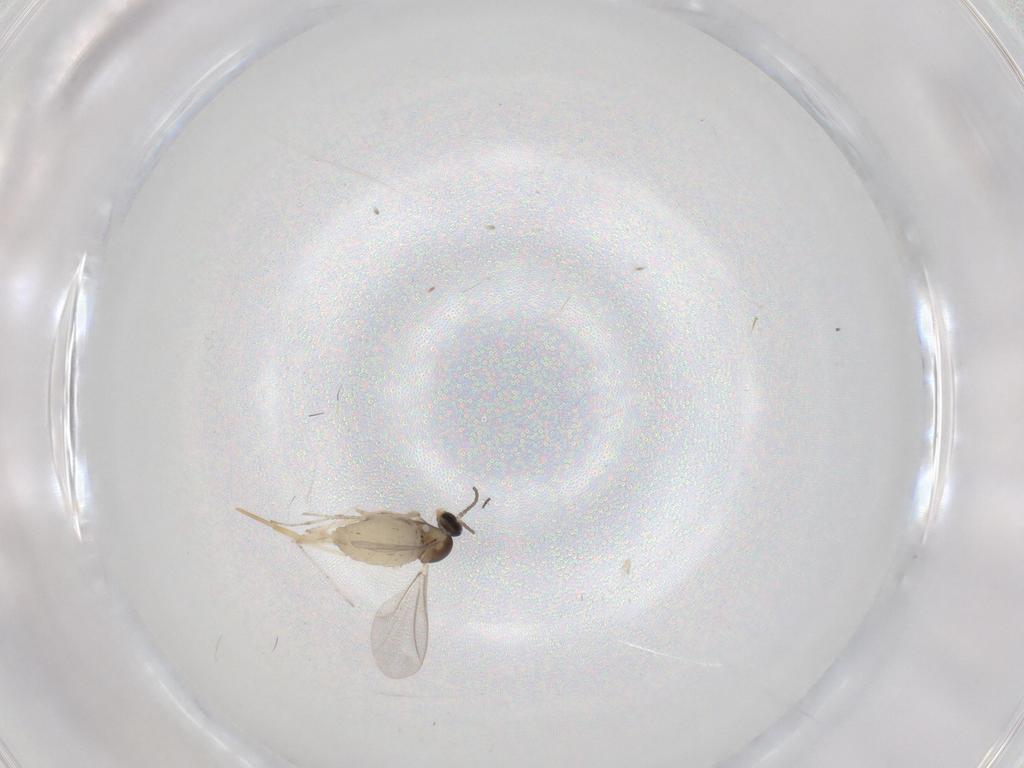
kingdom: Animalia
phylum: Arthropoda
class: Insecta
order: Diptera
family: Cecidomyiidae
